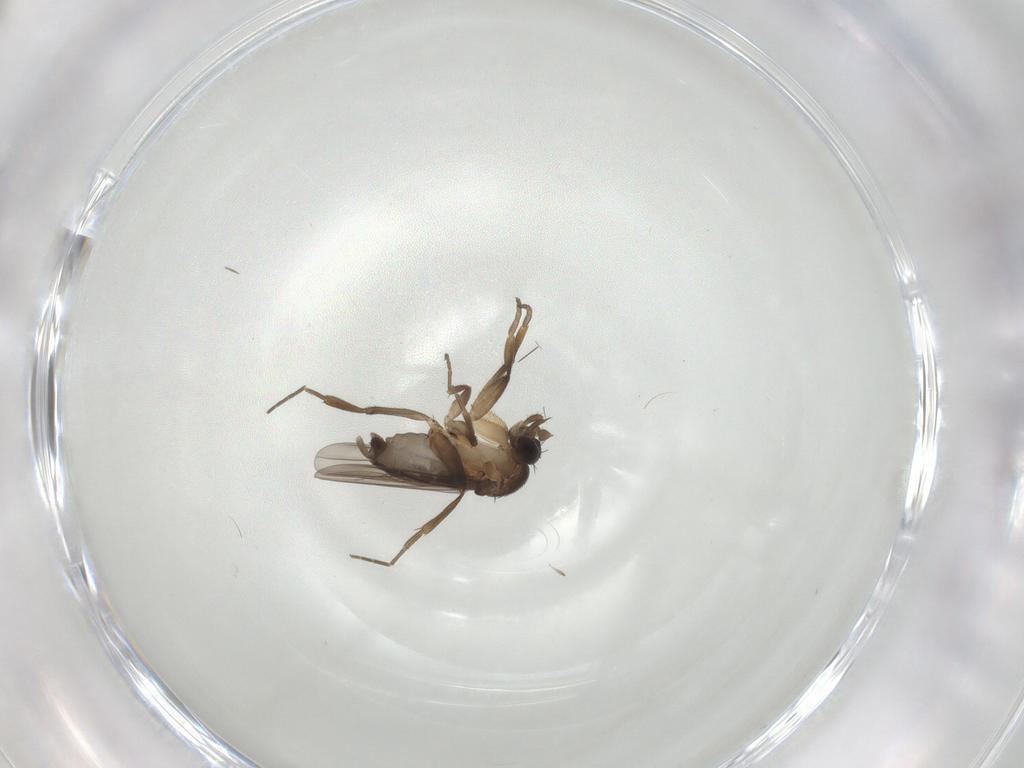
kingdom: Animalia
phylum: Arthropoda
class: Insecta
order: Diptera
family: Phoridae
